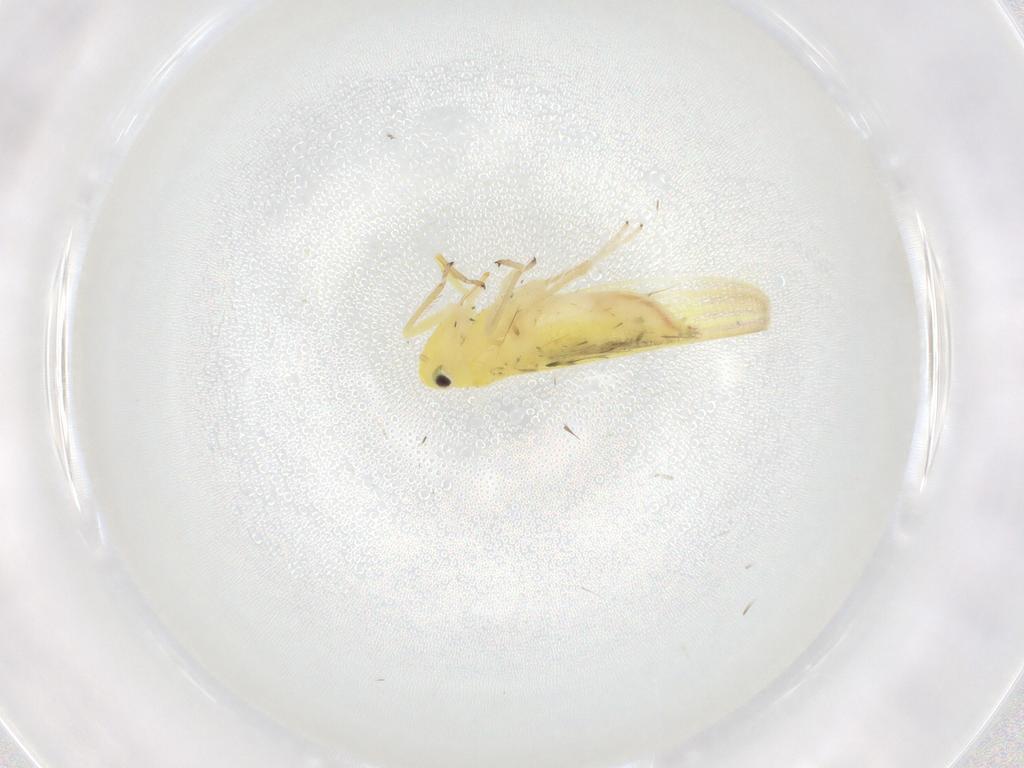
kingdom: Animalia
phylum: Arthropoda
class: Insecta
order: Hemiptera
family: Cicadellidae
